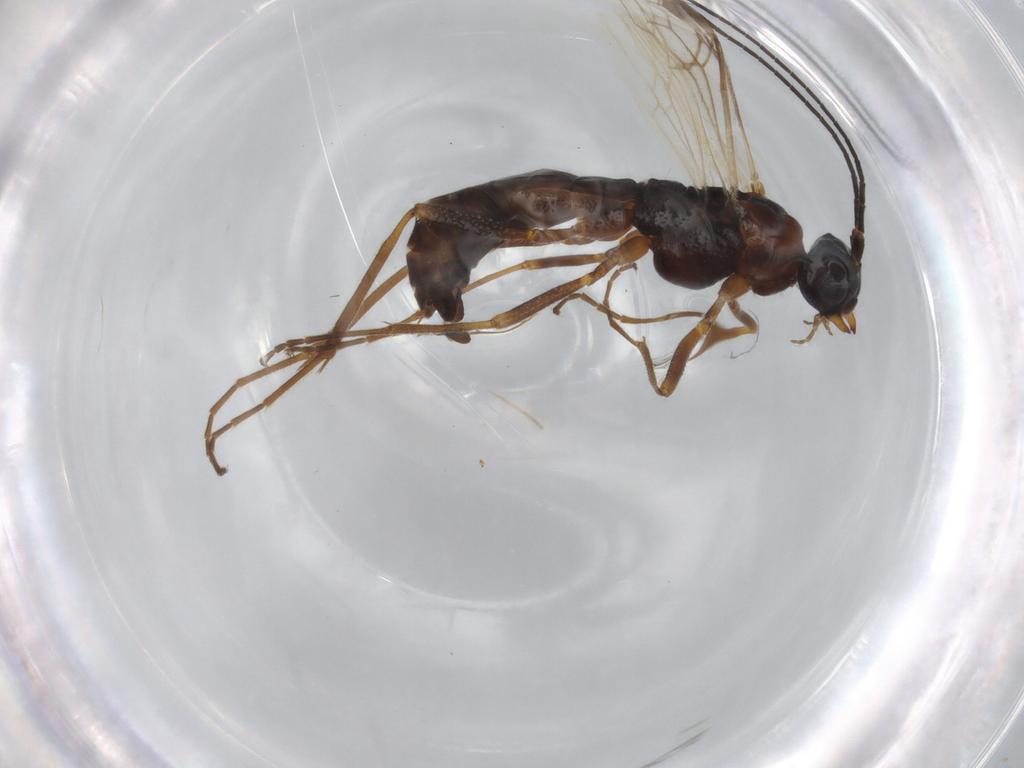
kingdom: Animalia
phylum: Arthropoda
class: Insecta
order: Hymenoptera
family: Braconidae
